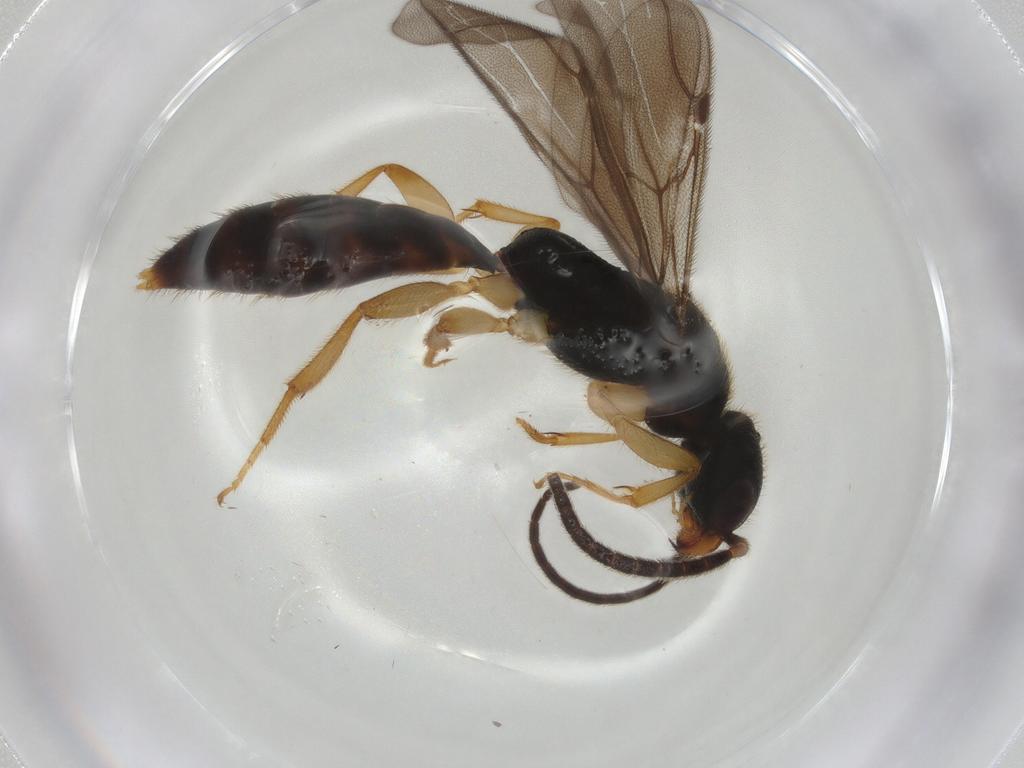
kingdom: Animalia
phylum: Arthropoda
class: Insecta
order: Hymenoptera
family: Bethylidae
